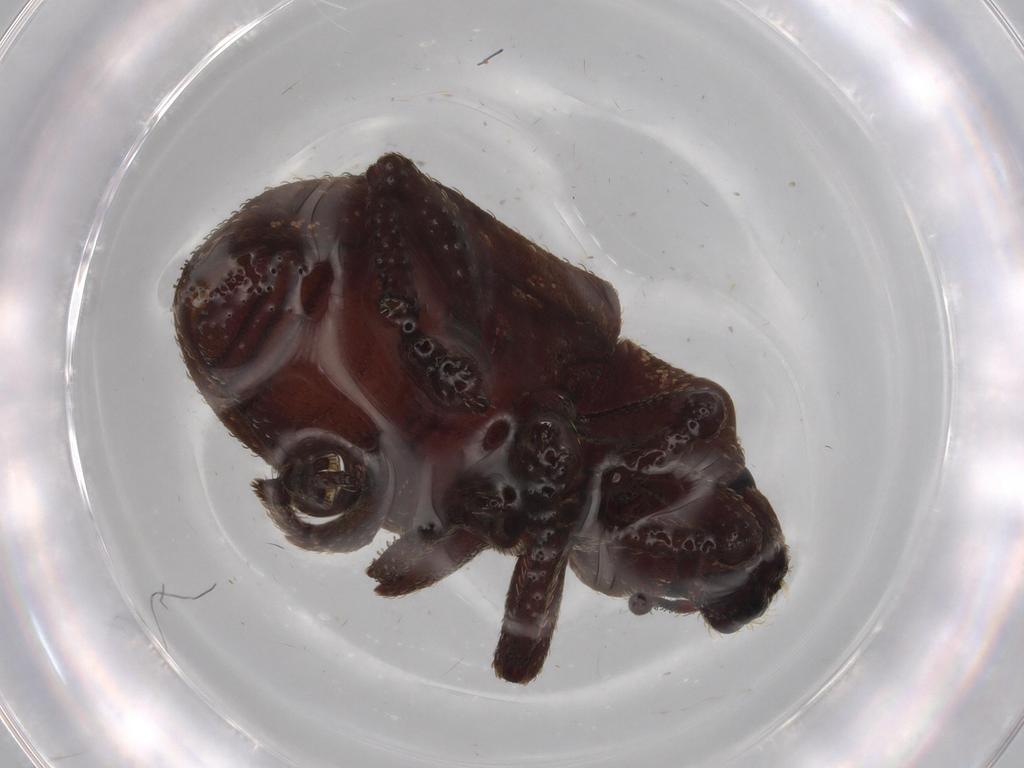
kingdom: Animalia
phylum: Arthropoda
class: Insecta
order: Coleoptera
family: Curculionidae
